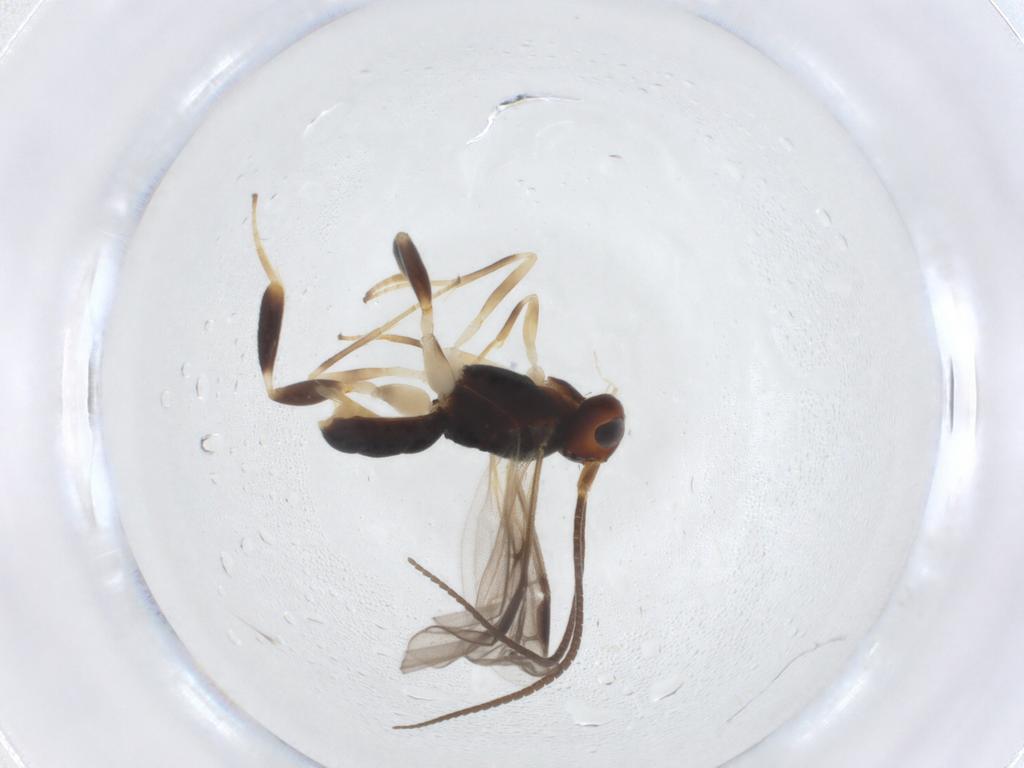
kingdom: Animalia
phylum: Arthropoda
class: Insecta
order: Hymenoptera
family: Braconidae
